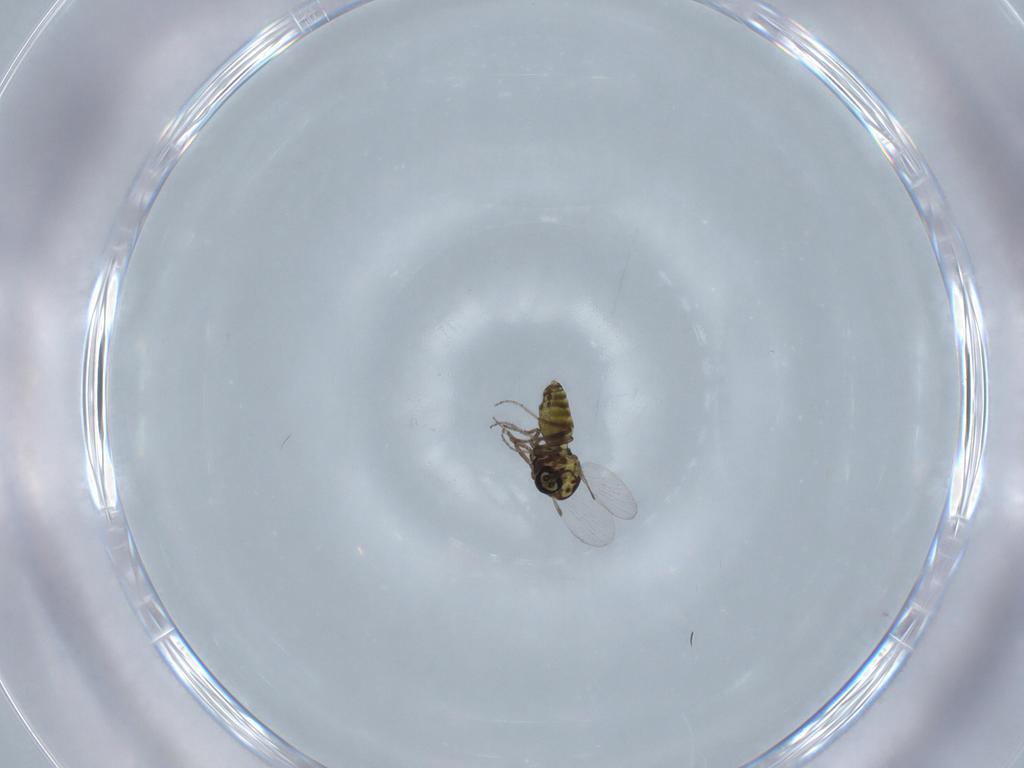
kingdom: Animalia
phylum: Arthropoda
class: Insecta
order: Diptera
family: Ceratopogonidae
